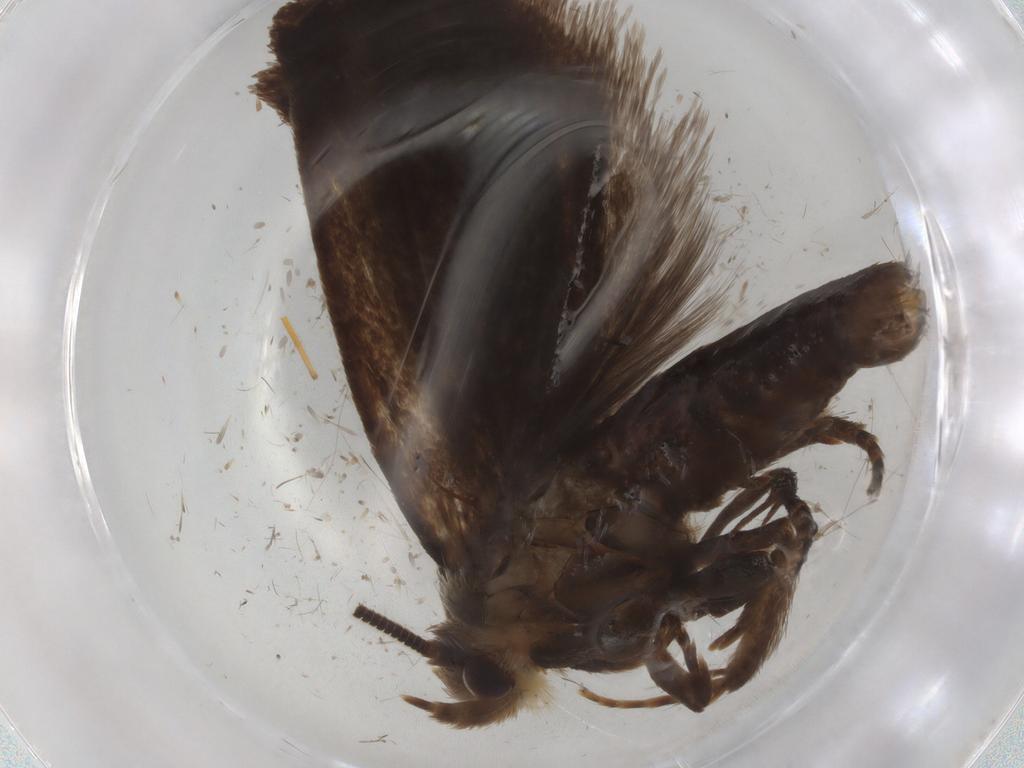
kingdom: Animalia
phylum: Arthropoda
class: Insecta
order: Lepidoptera
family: Tineidae
